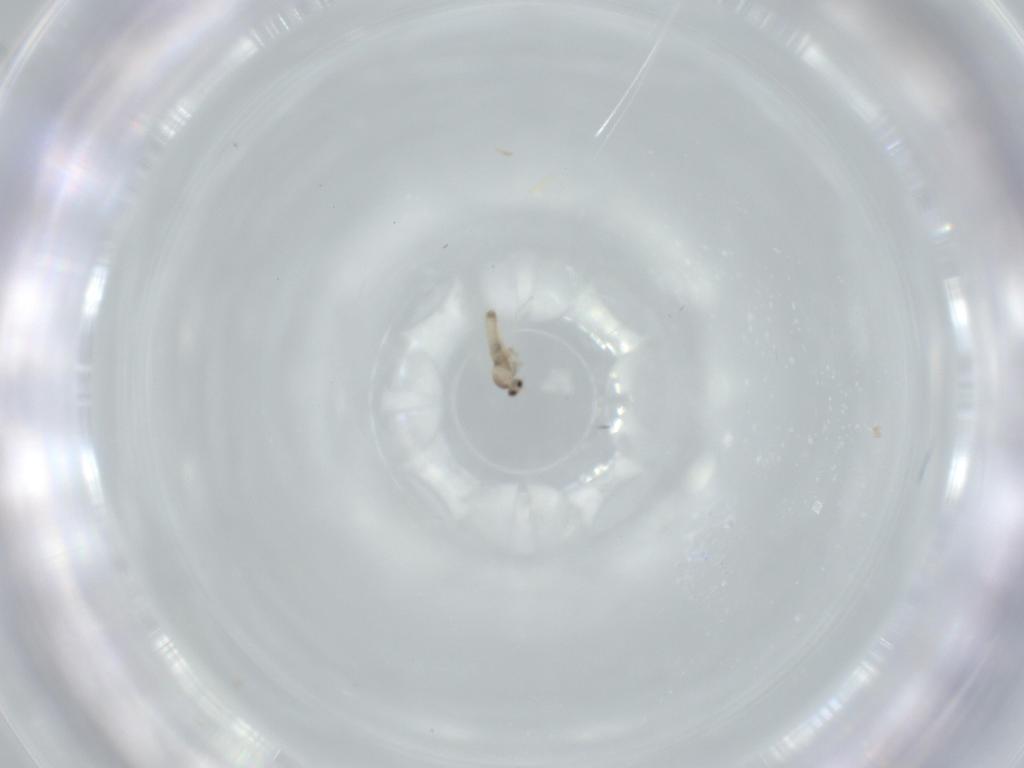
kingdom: Animalia
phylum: Arthropoda
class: Insecta
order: Diptera
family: Cecidomyiidae
